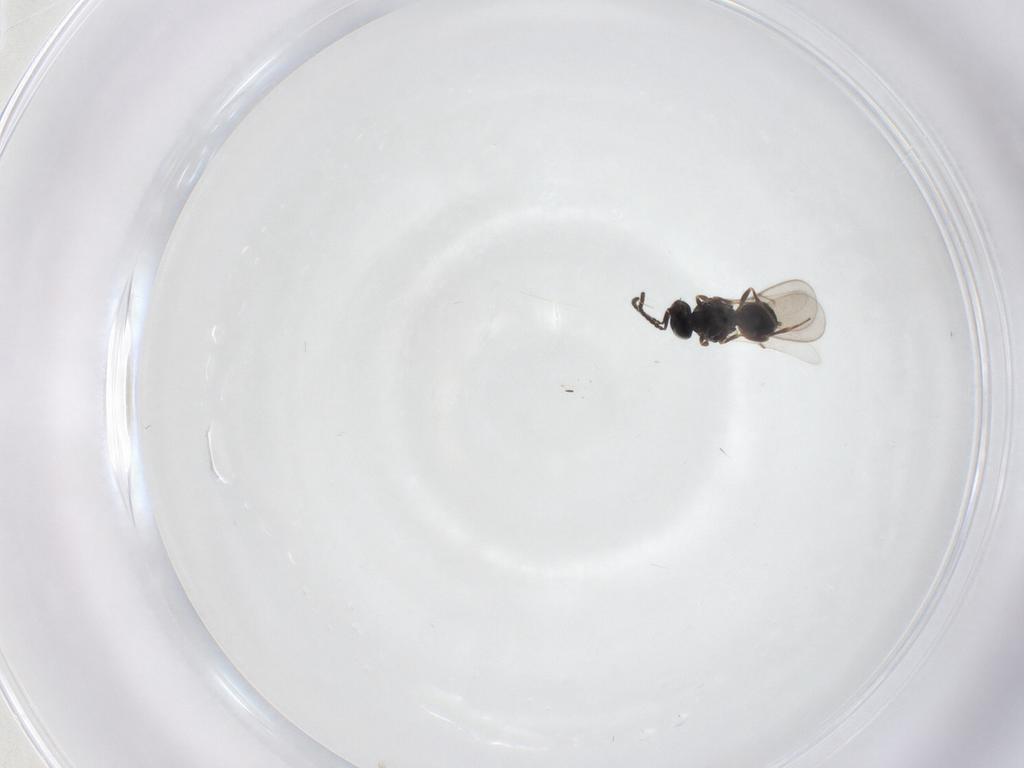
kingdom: Animalia
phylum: Arthropoda
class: Insecta
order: Hymenoptera
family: Scelionidae
